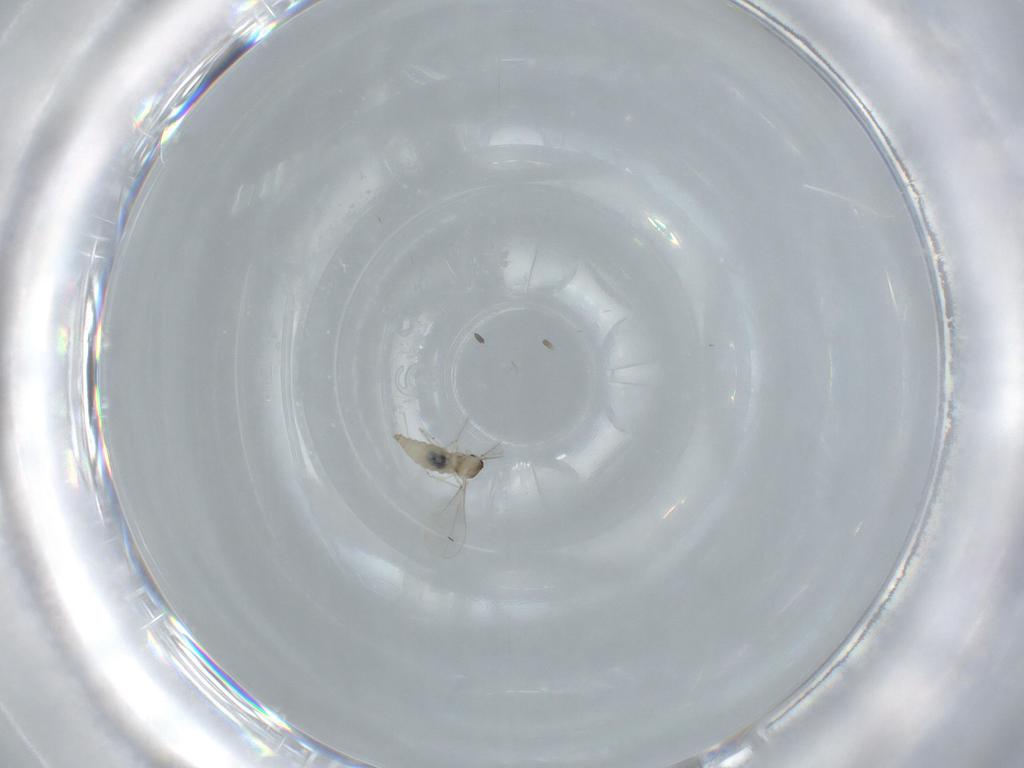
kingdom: Animalia
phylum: Arthropoda
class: Insecta
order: Diptera
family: Cecidomyiidae
